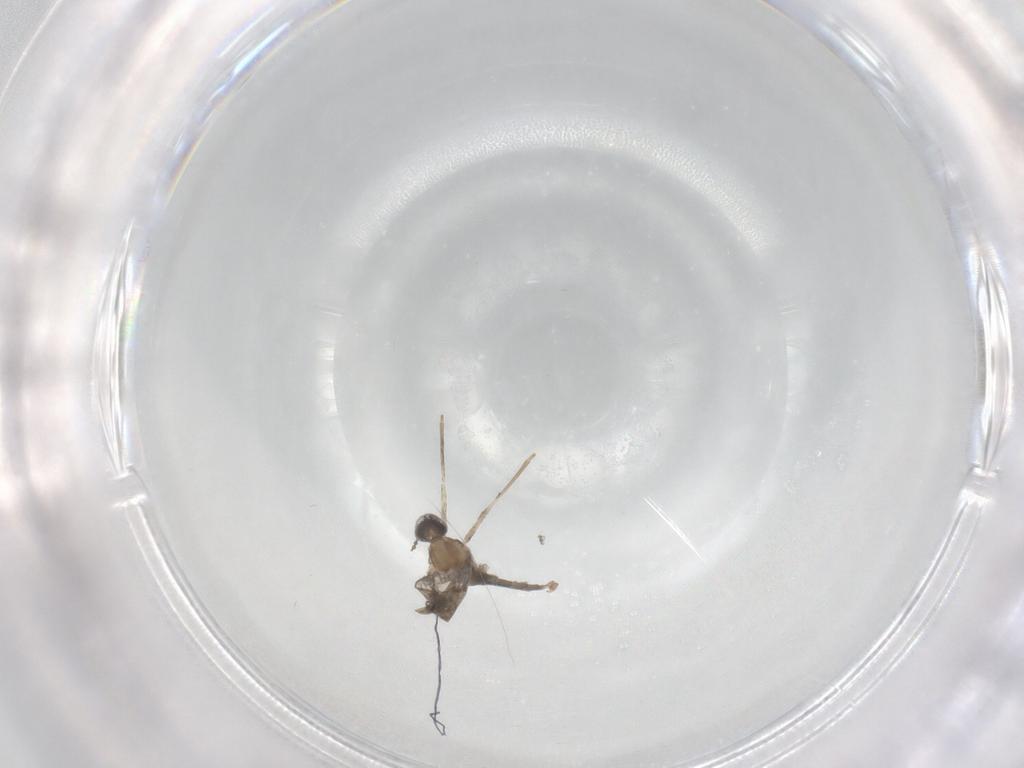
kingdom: Animalia
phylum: Arthropoda
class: Insecta
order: Diptera
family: Cecidomyiidae
